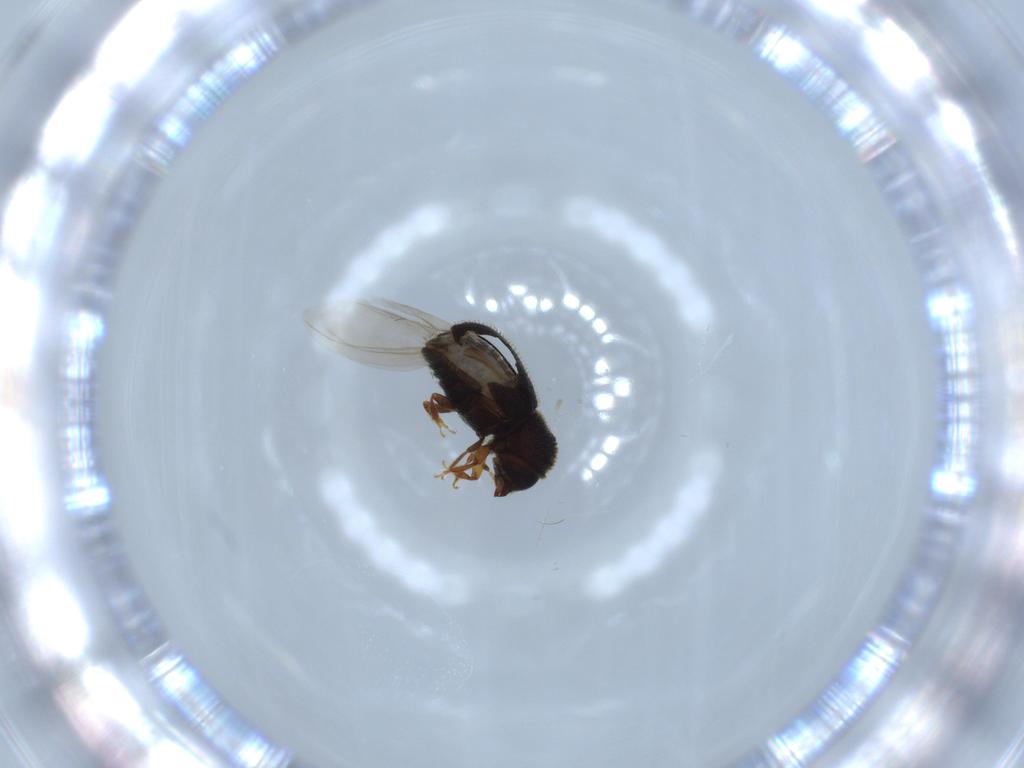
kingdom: Animalia
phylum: Arthropoda
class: Insecta
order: Coleoptera
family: Curculionidae
